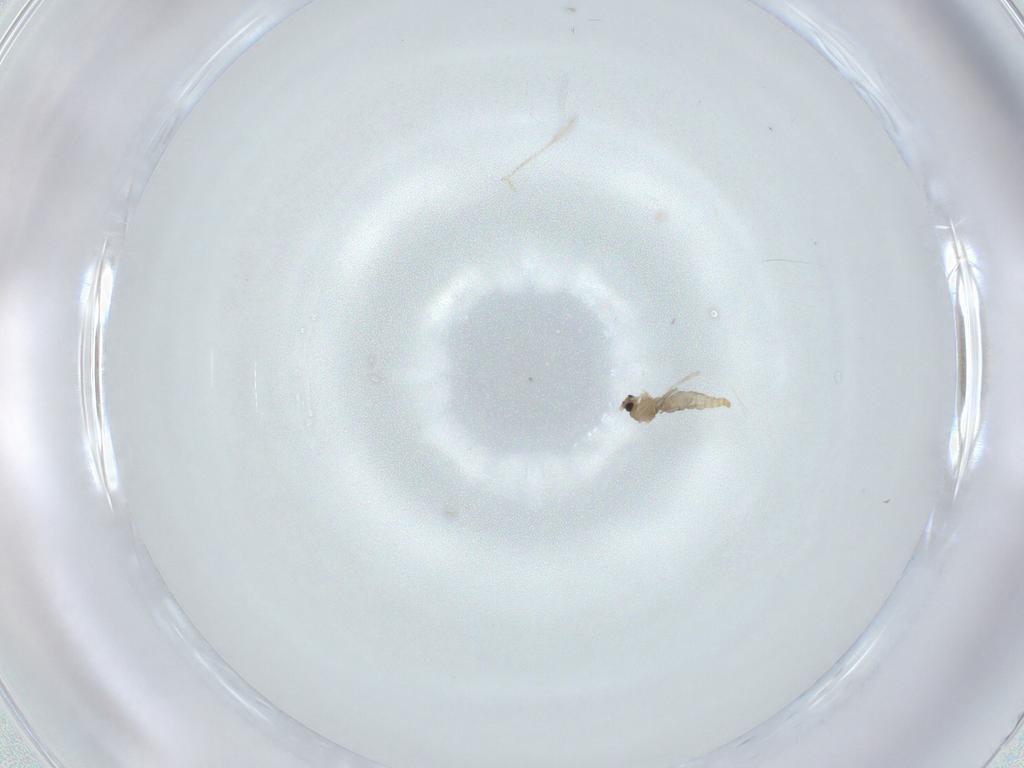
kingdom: Animalia
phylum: Arthropoda
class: Insecta
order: Diptera
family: Cecidomyiidae
